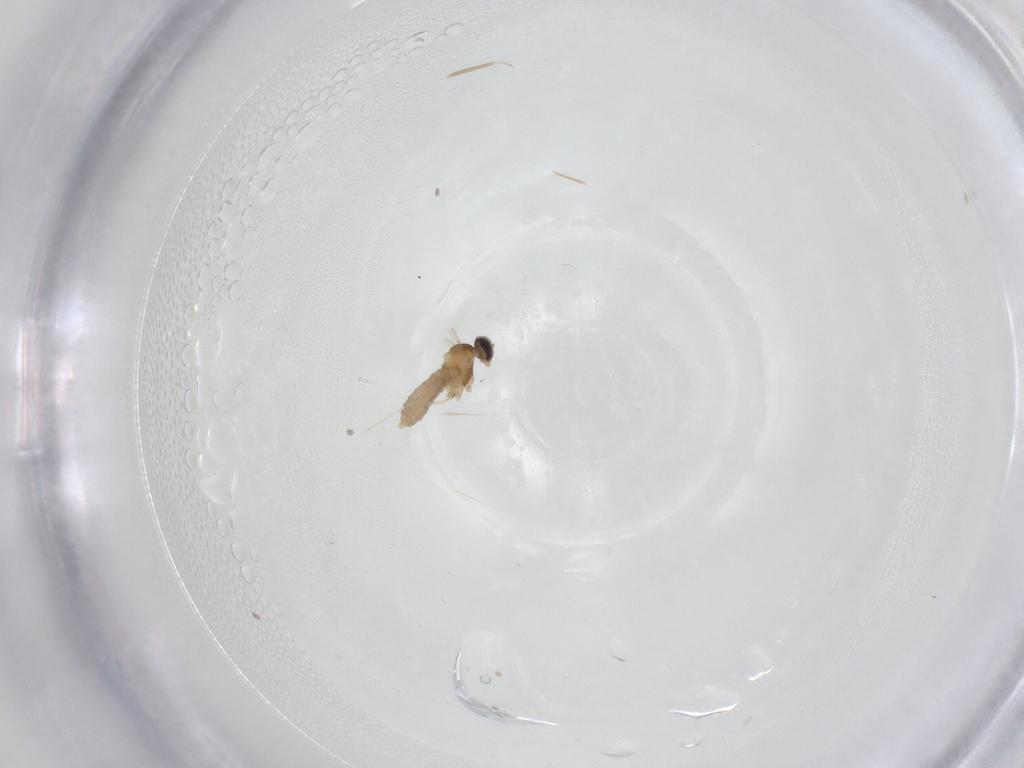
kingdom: Animalia
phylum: Arthropoda
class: Insecta
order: Diptera
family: Cecidomyiidae
